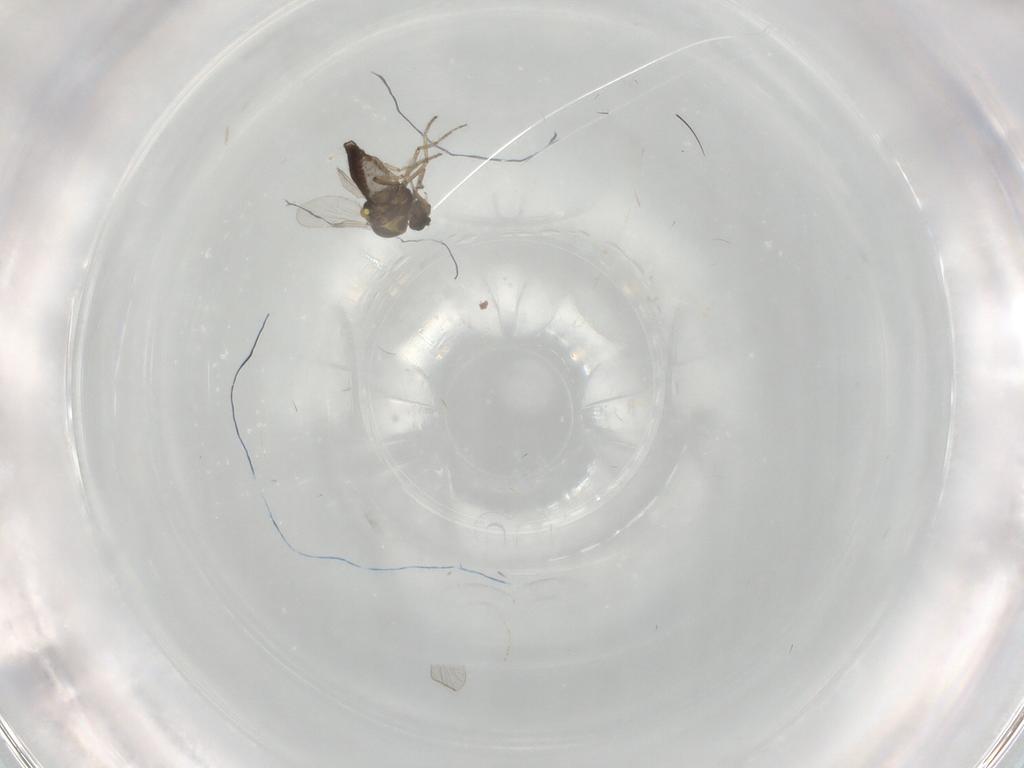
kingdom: Animalia
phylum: Arthropoda
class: Insecta
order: Diptera
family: Ceratopogonidae
